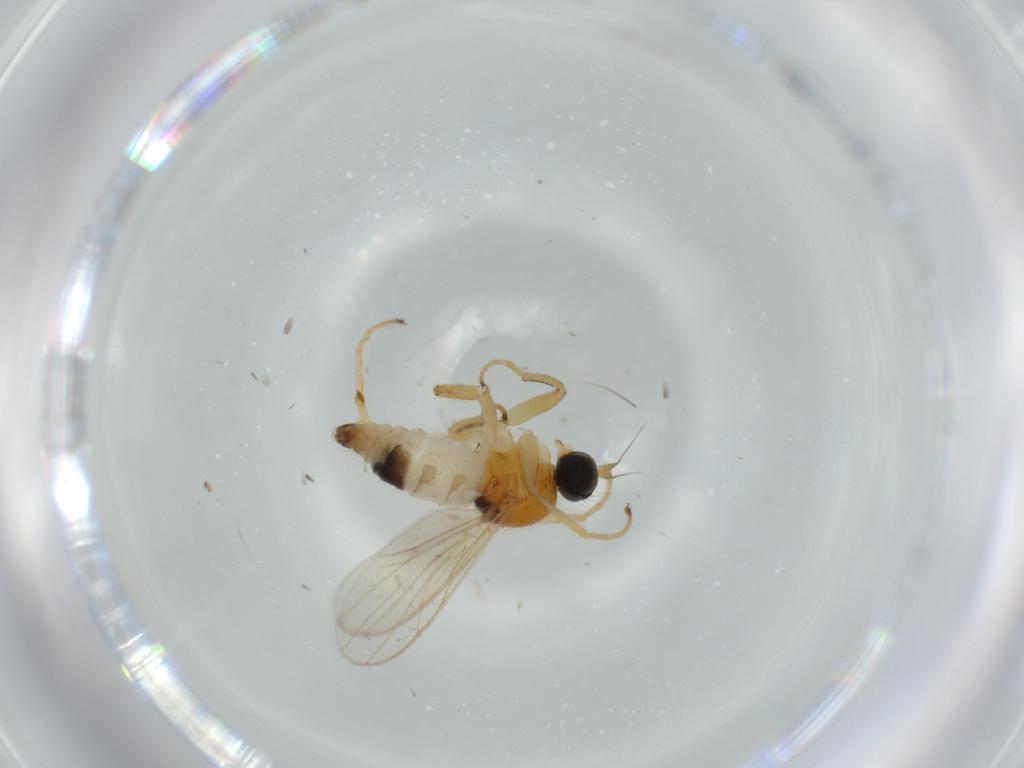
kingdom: Animalia
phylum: Arthropoda
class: Insecta
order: Diptera
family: Hybotidae
